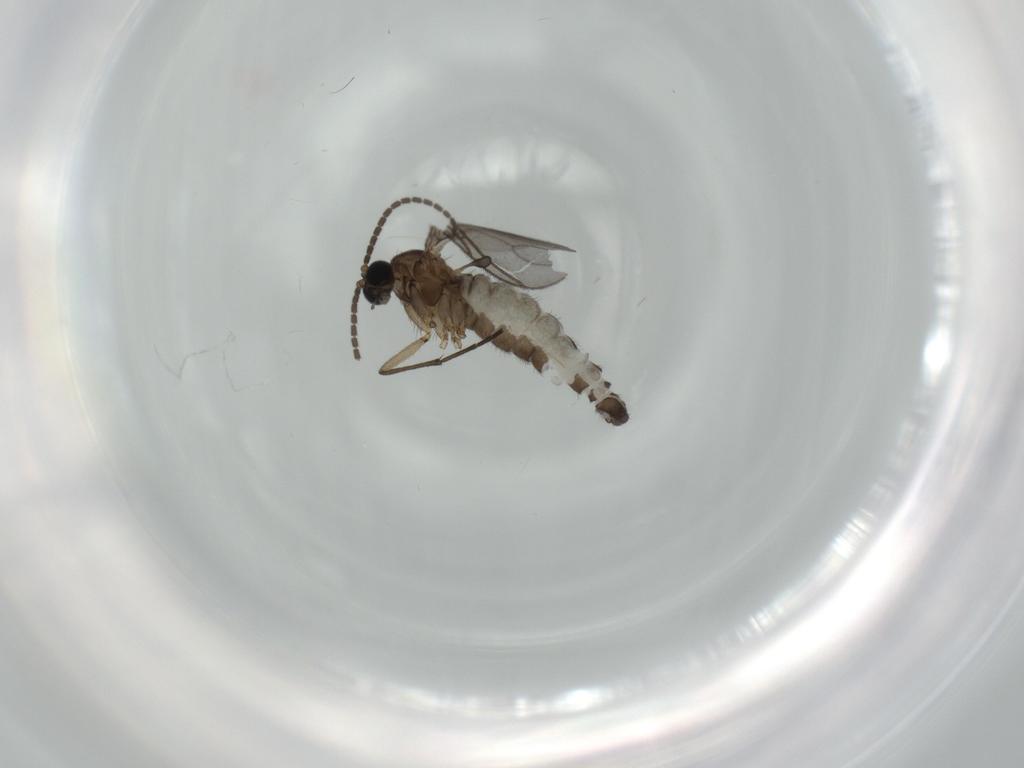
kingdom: Animalia
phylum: Arthropoda
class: Insecta
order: Diptera
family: Sciaridae
